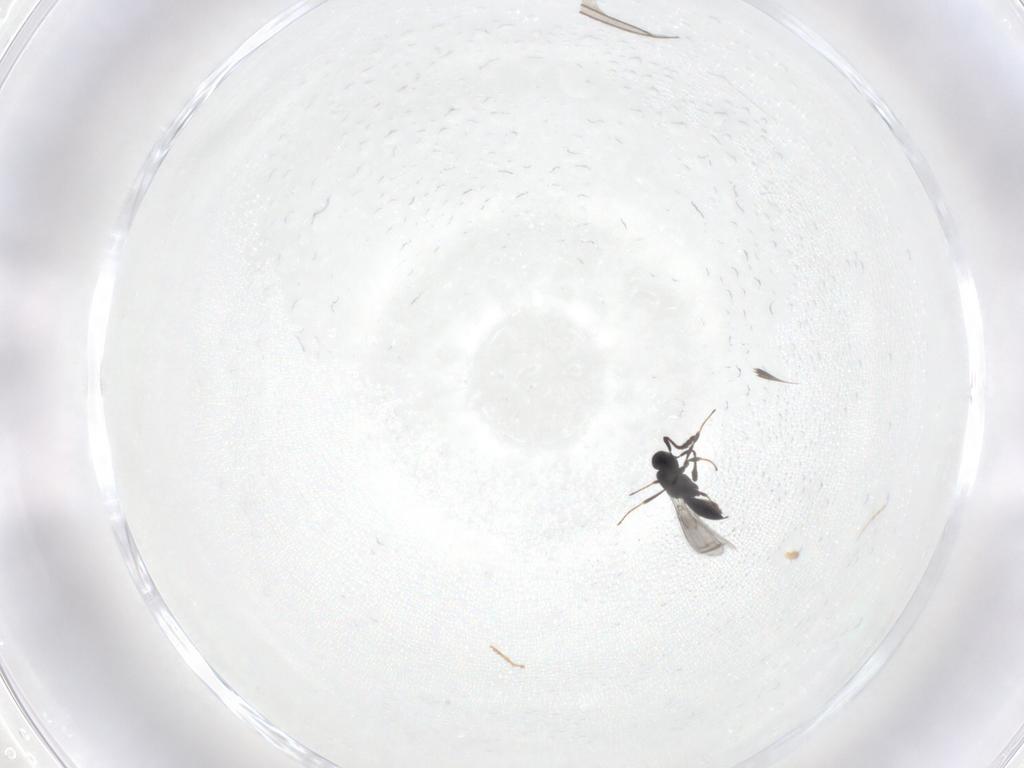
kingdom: Animalia
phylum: Arthropoda
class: Insecta
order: Hymenoptera
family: Scelionidae
